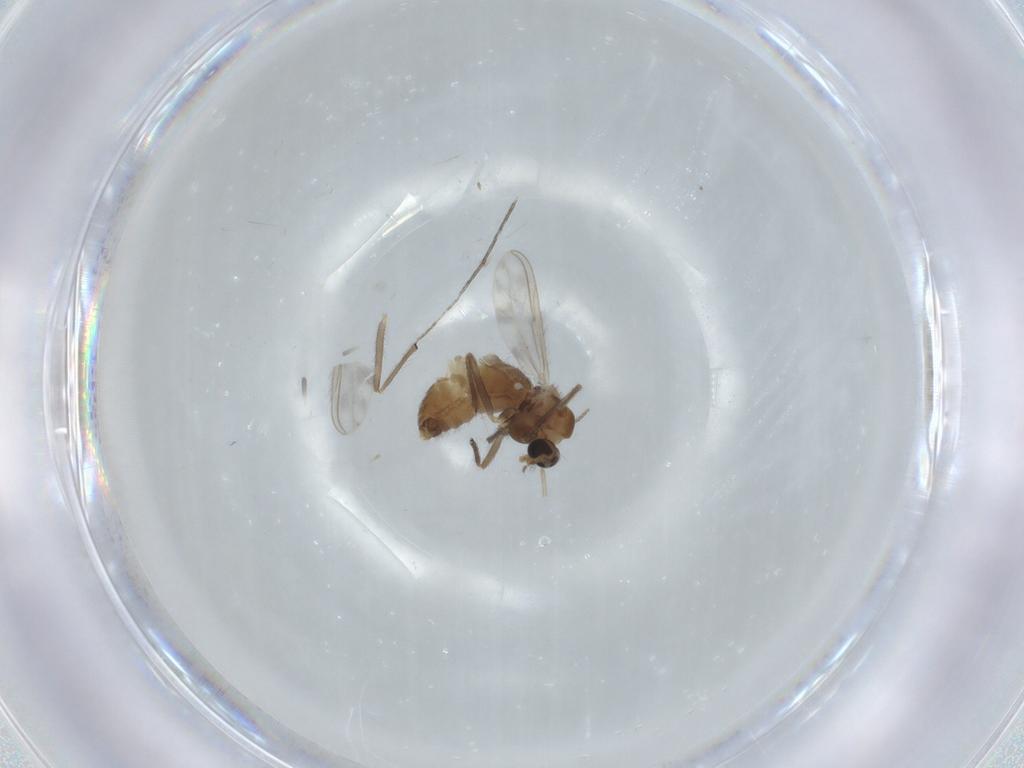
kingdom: Animalia
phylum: Arthropoda
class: Insecta
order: Diptera
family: Chironomidae
